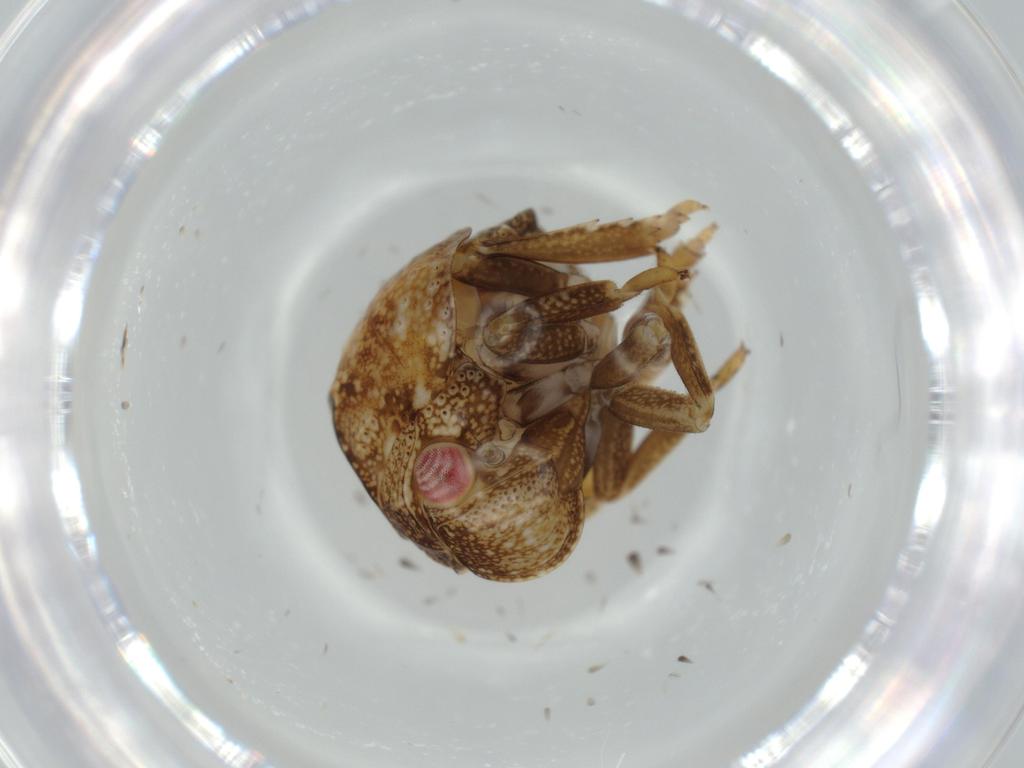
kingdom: Animalia
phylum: Arthropoda
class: Insecta
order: Hemiptera
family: Acanaloniidae
